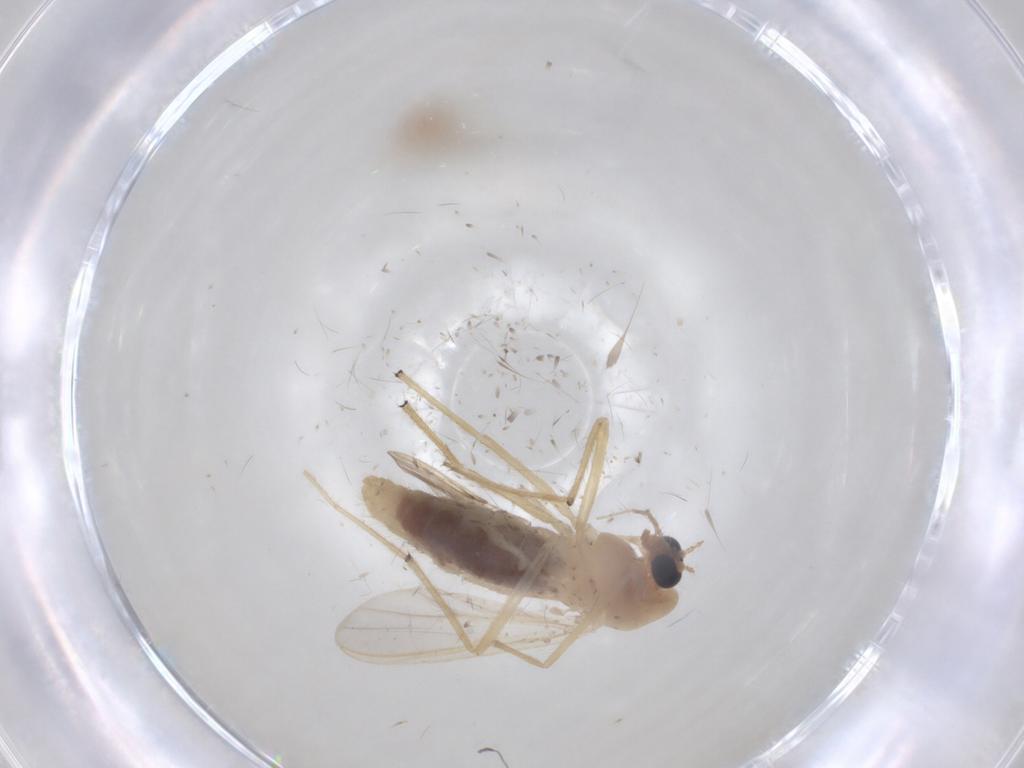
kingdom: Animalia
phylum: Arthropoda
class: Insecta
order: Diptera
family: Chironomidae
